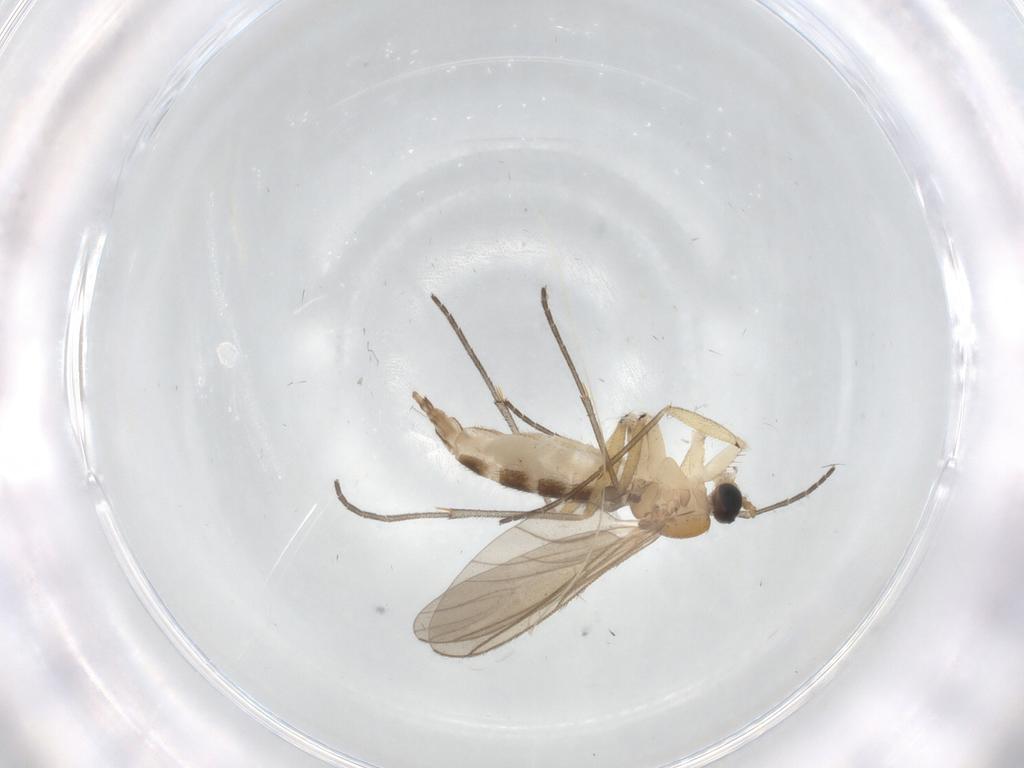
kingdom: Animalia
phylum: Arthropoda
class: Insecta
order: Diptera
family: Sciaridae
